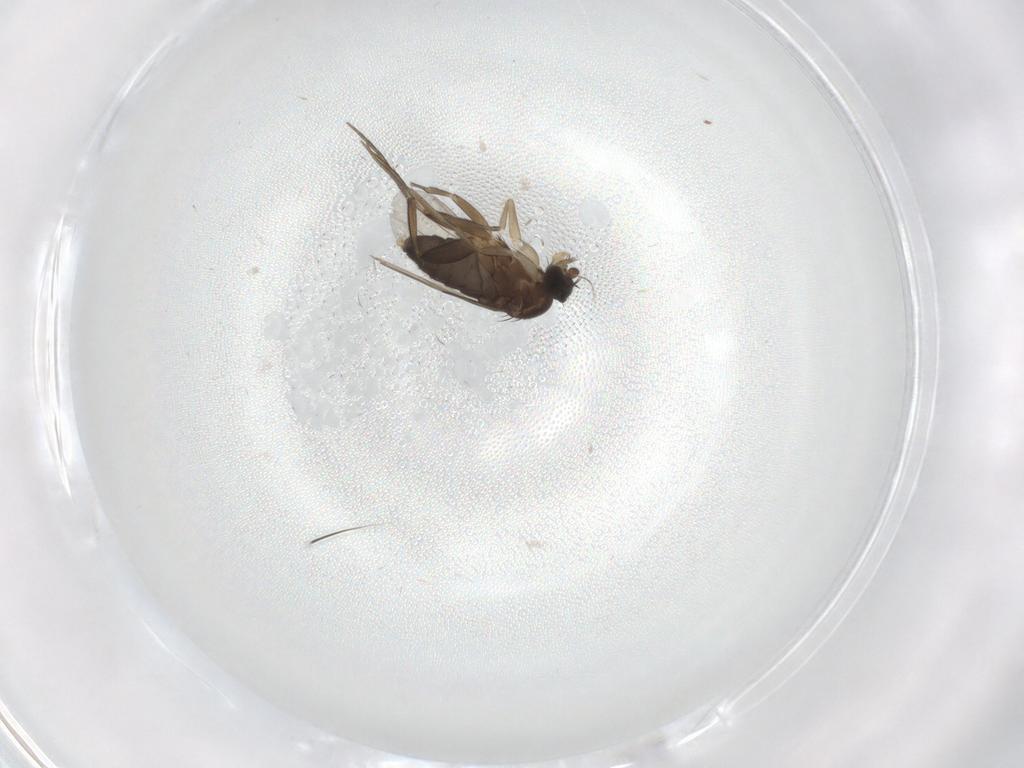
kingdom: Animalia
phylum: Arthropoda
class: Insecta
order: Diptera
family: Phoridae
